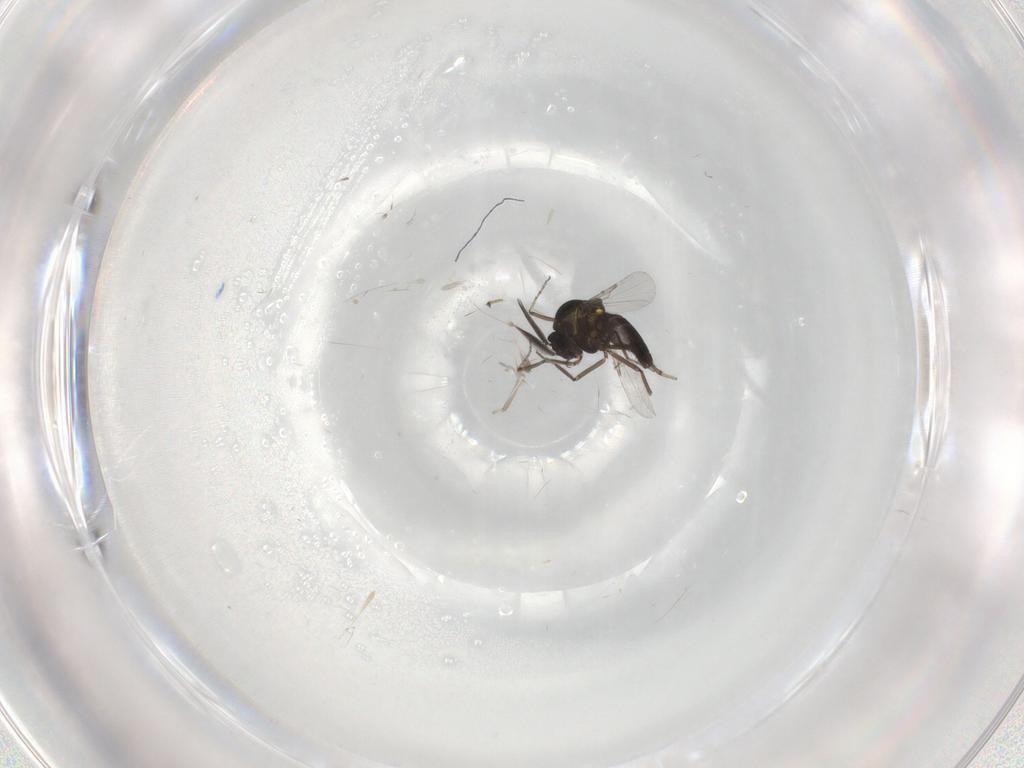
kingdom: Animalia
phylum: Arthropoda
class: Insecta
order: Diptera
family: Ceratopogonidae
